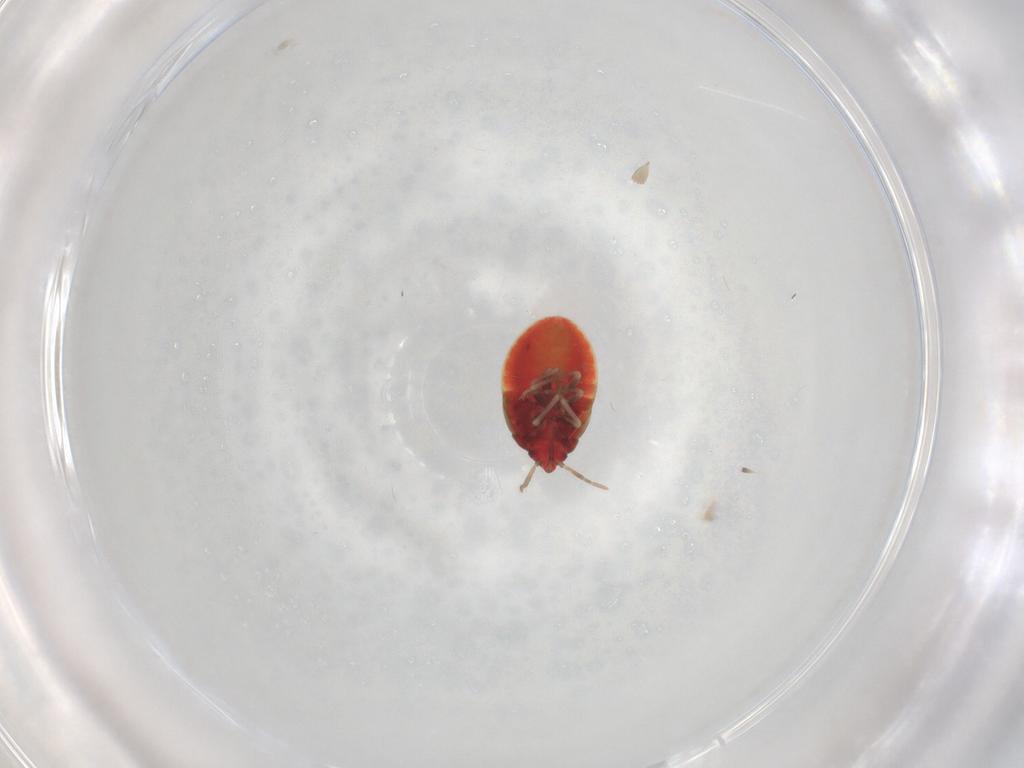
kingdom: Animalia
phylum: Arthropoda
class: Insecta
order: Hemiptera
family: Anthocoridae
